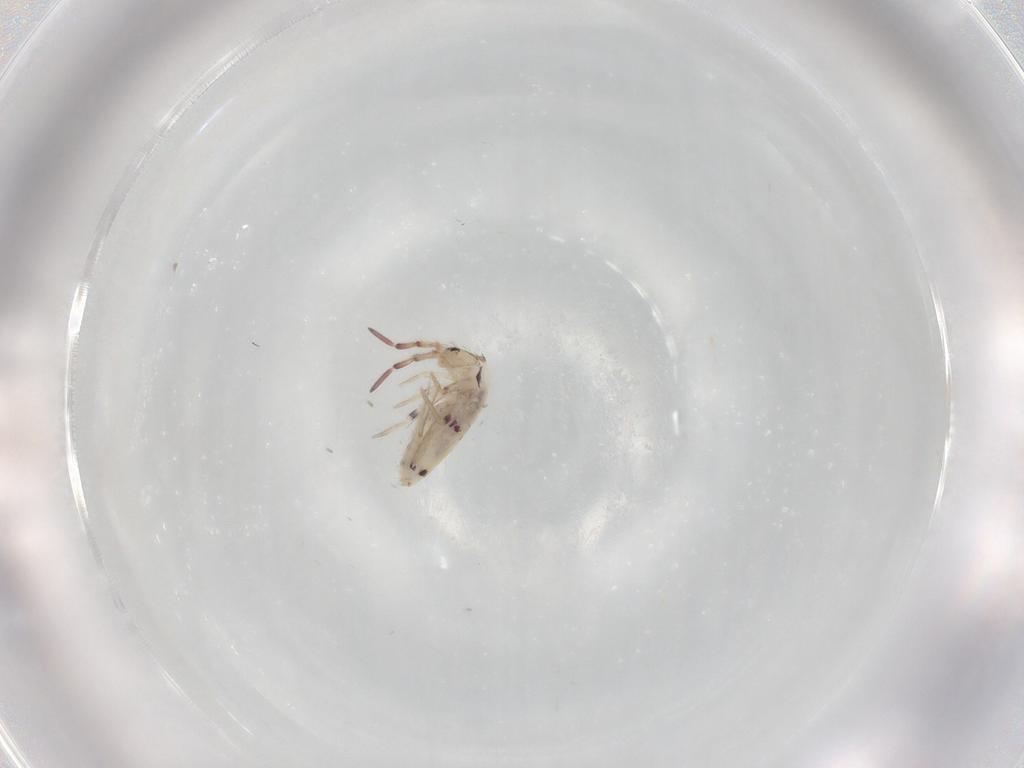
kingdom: Animalia
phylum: Arthropoda
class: Collembola
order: Entomobryomorpha
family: Entomobryidae
